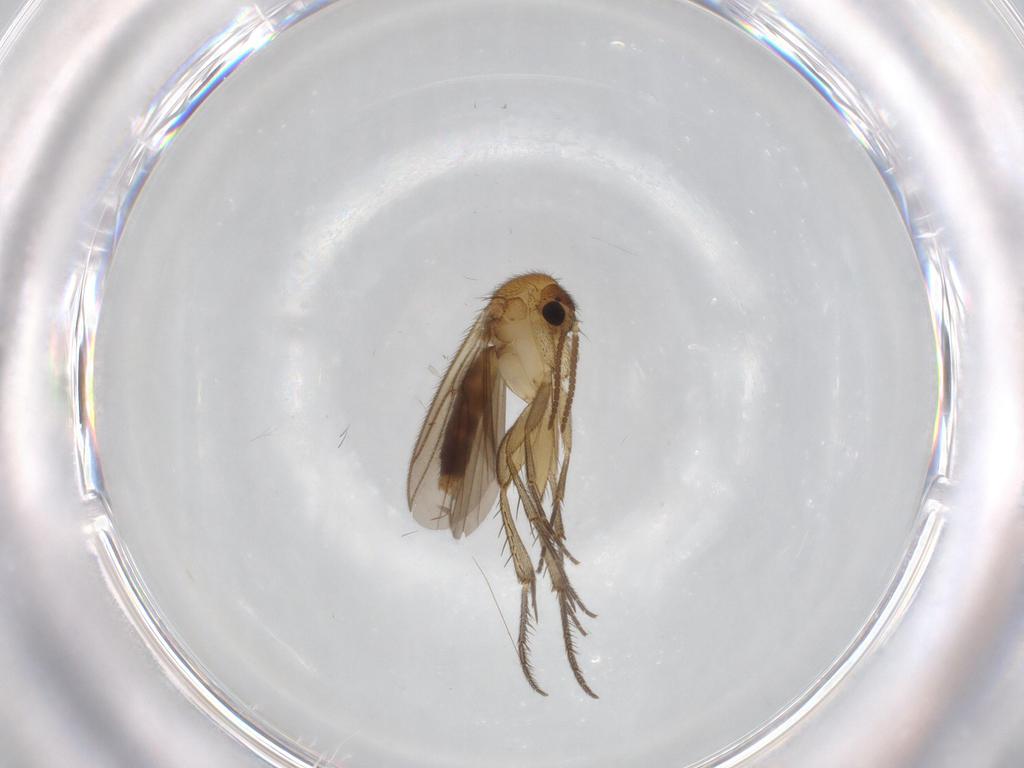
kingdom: Animalia
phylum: Arthropoda
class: Insecta
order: Diptera
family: Mycetophilidae
